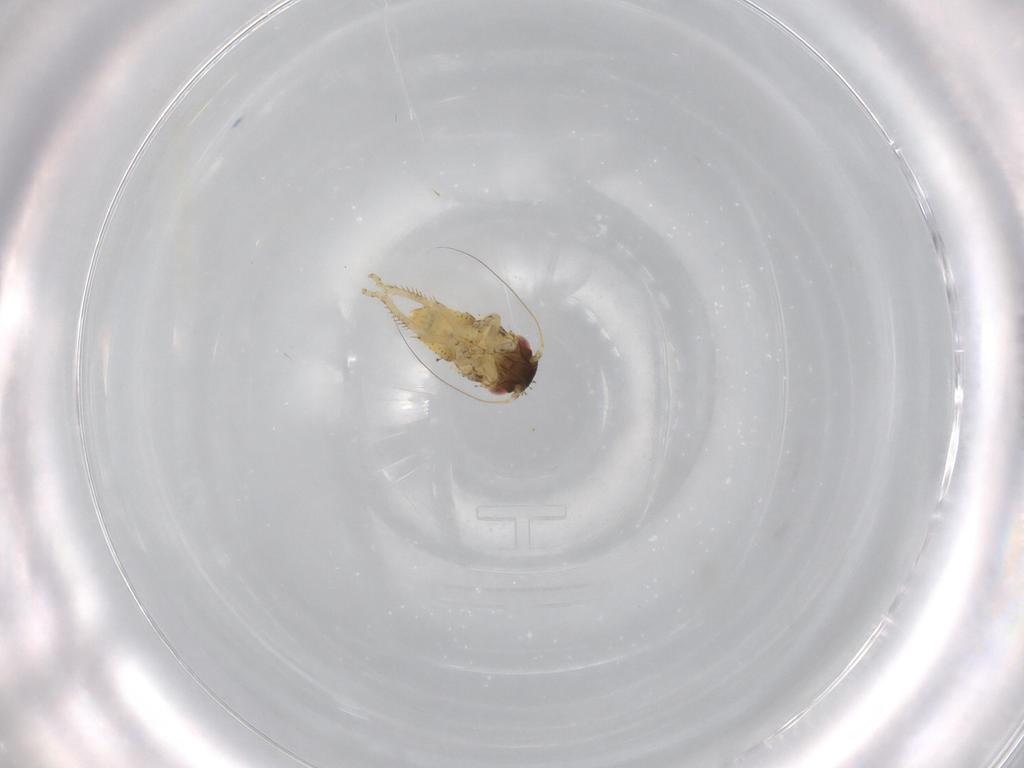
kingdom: Animalia
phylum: Arthropoda
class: Insecta
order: Hemiptera
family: Cicadellidae
